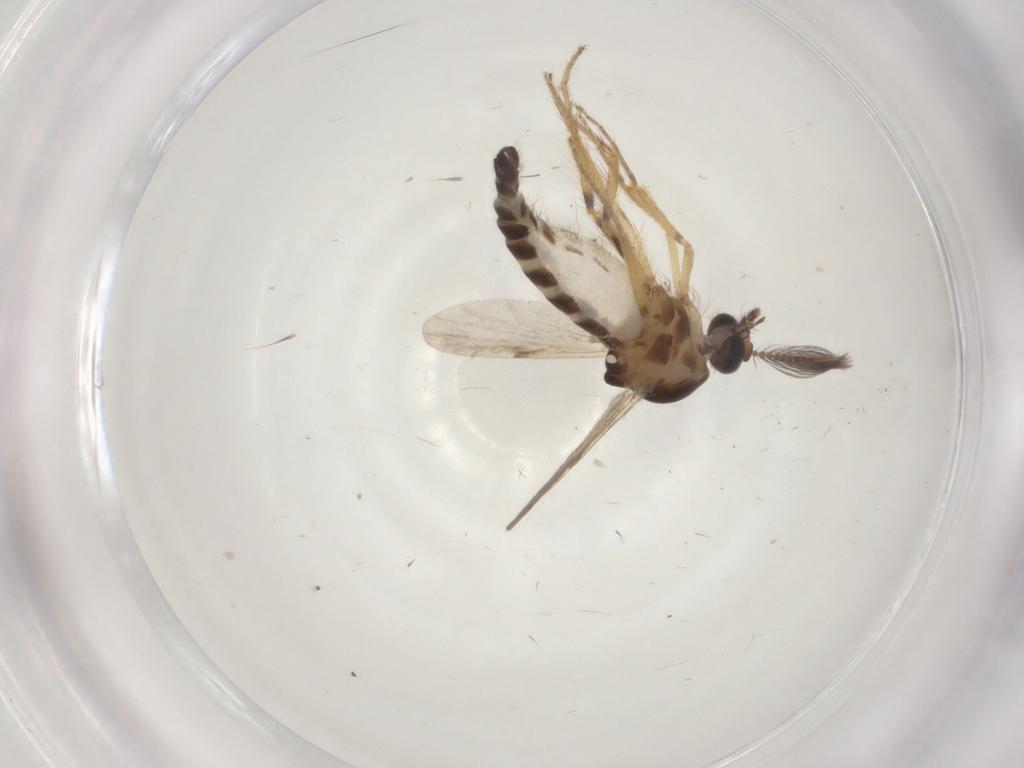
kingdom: Animalia
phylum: Arthropoda
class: Insecta
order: Diptera
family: Ceratopogonidae
